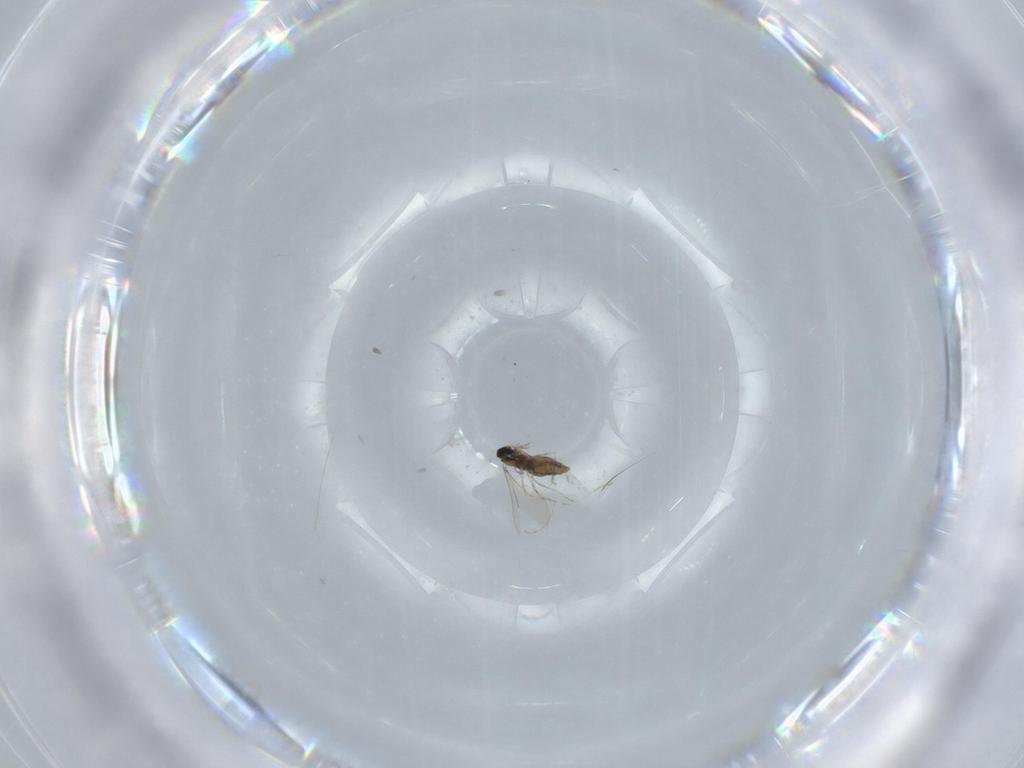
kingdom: Animalia
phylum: Arthropoda
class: Insecta
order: Diptera
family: Cecidomyiidae
